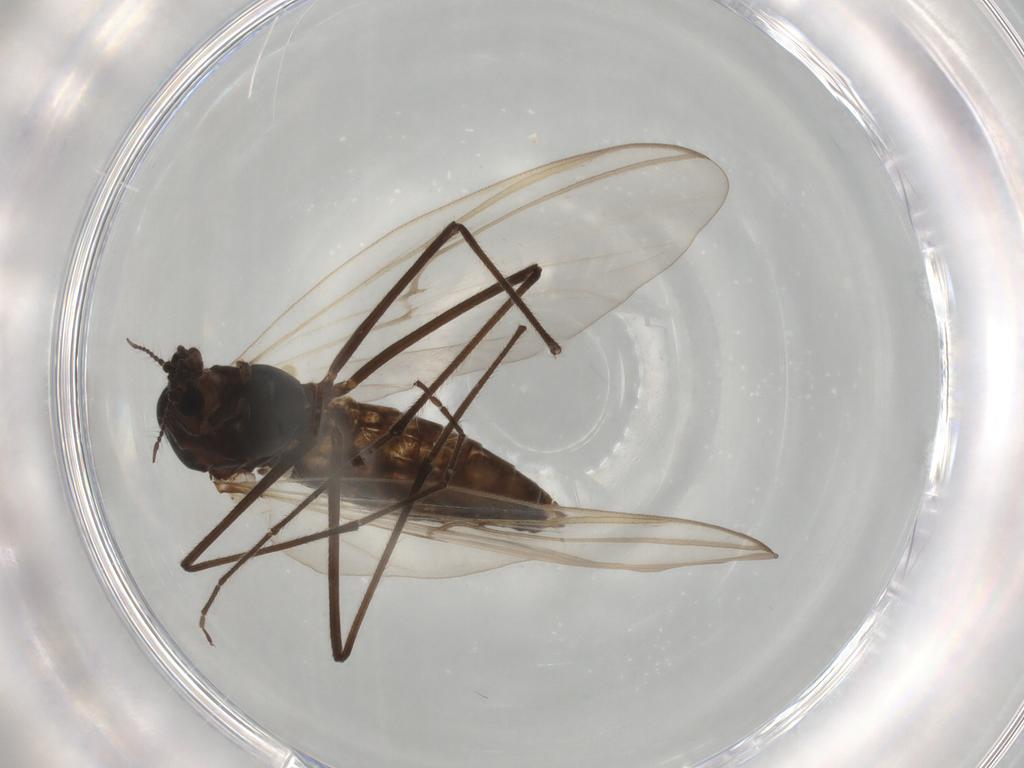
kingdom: Animalia
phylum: Arthropoda
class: Insecta
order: Diptera
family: Chironomidae
